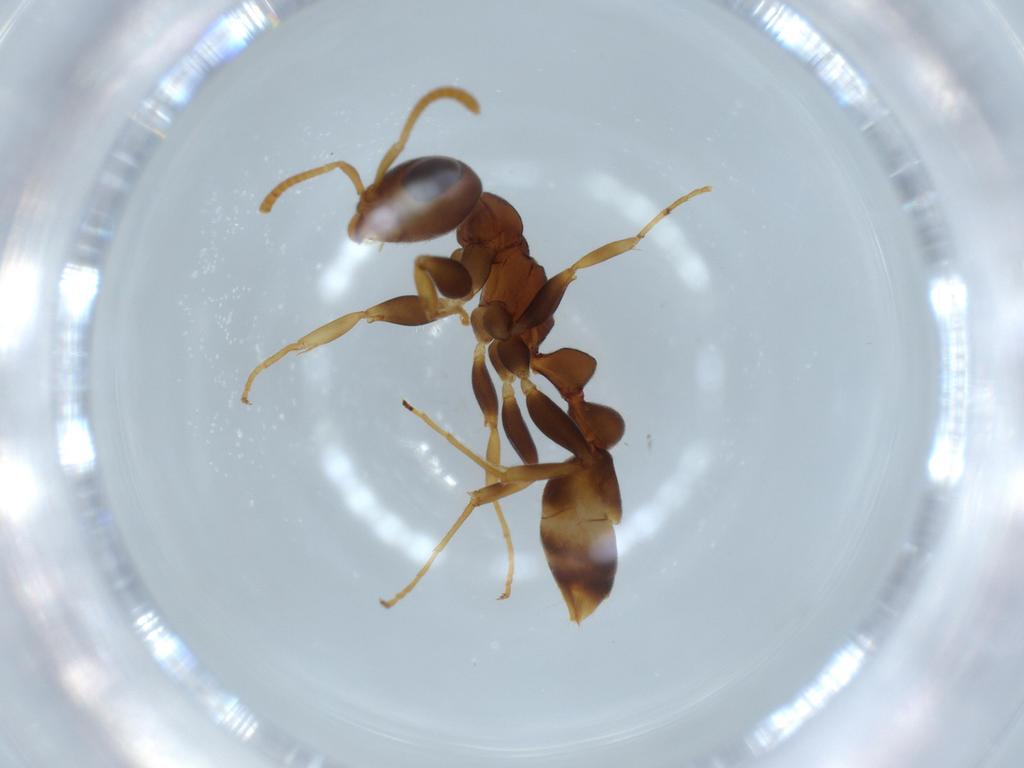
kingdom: Animalia
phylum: Arthropoda
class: Insecta
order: Hymenoptera
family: Formicidae
